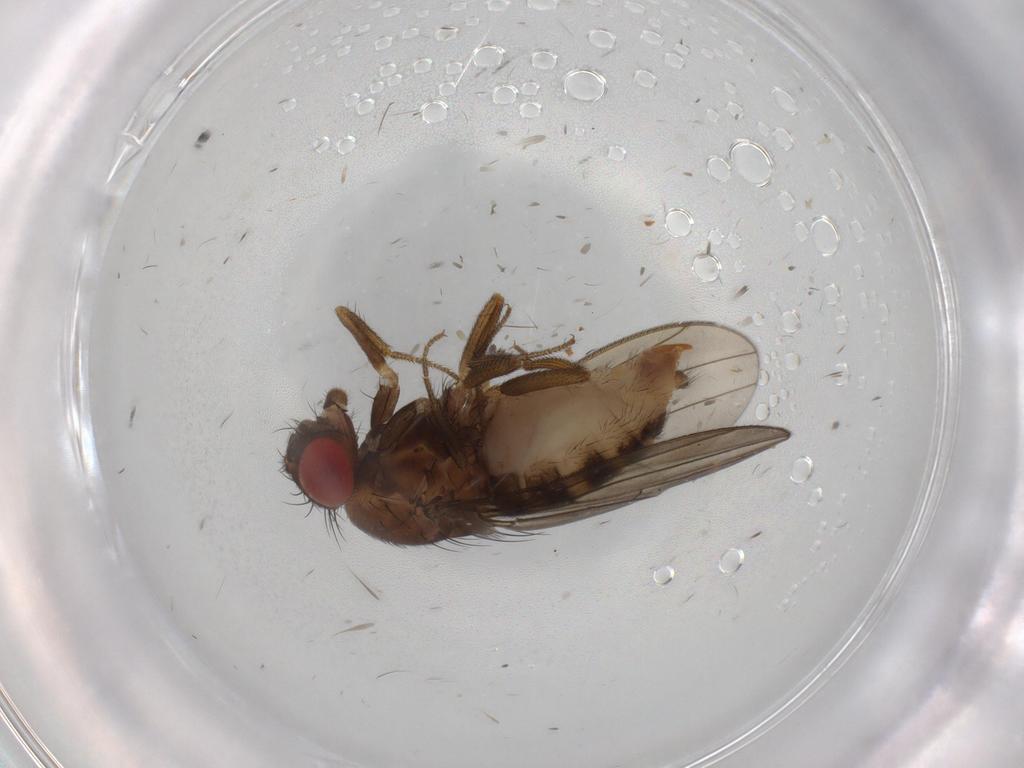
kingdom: Animalia
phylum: Arthropoda
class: Insecta
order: Diptera
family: Drosophilidae
